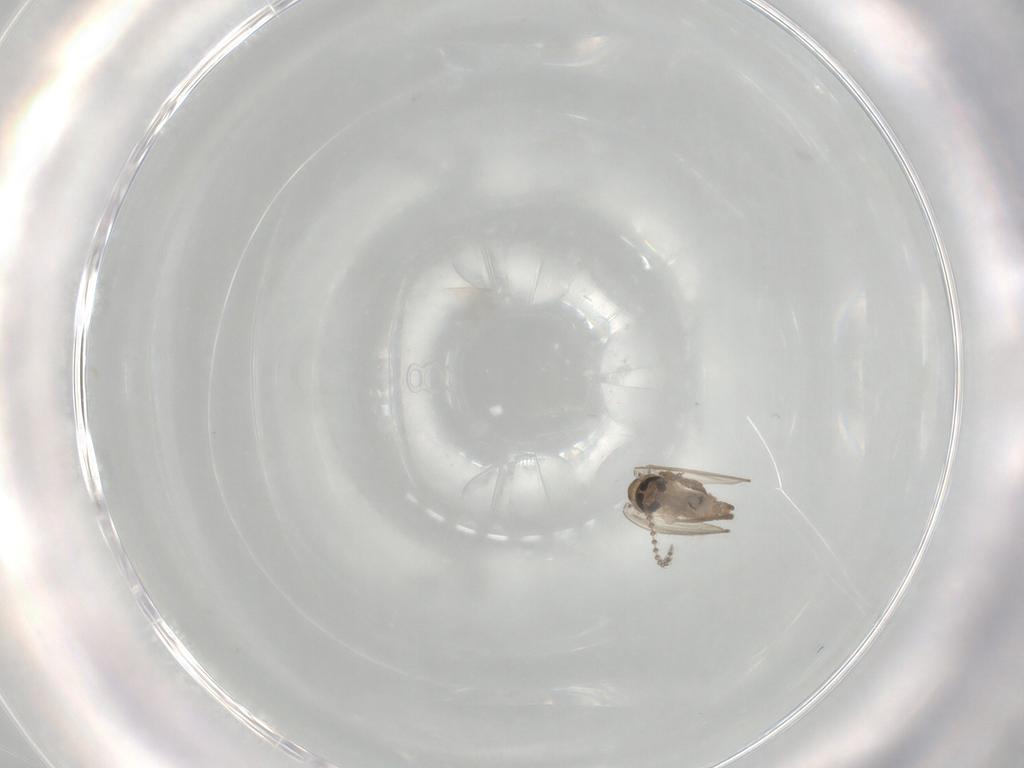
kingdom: Animalia
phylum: Arthropoda
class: Insecta
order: Diptera
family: Psychodidae
